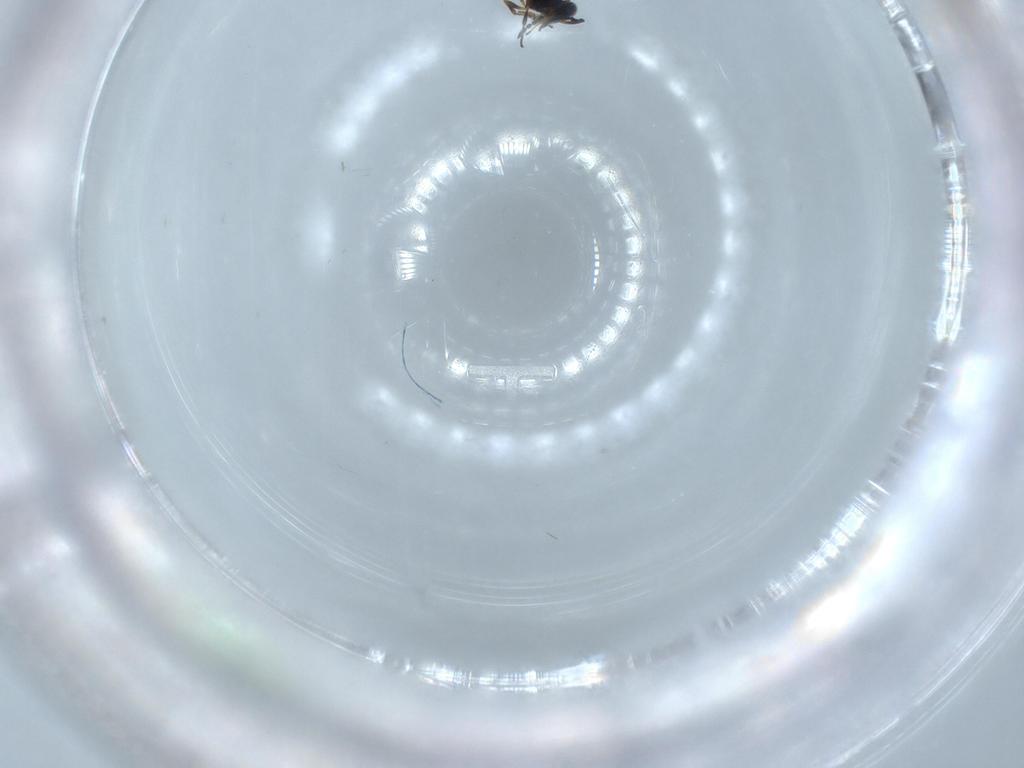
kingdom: Animalia
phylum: Arthropoda
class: Insecta
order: Hymenoptera
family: Platygastridae
